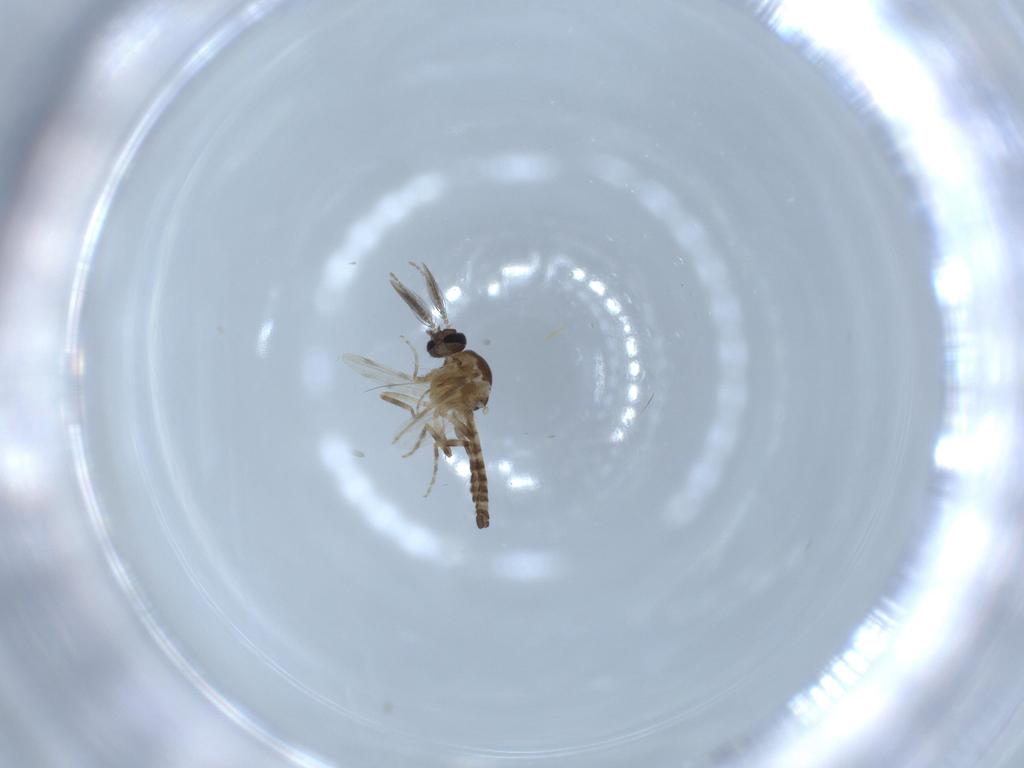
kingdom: Animalia
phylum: Arthropoda
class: Insecta
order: Diptera
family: Ceratopogonidae
